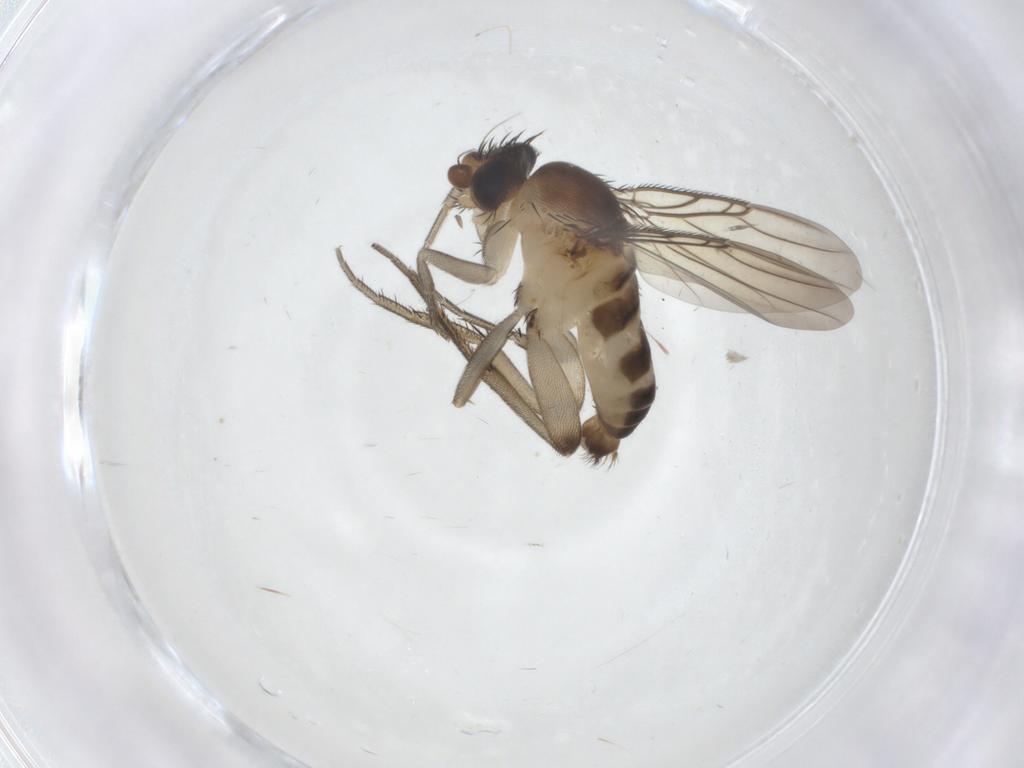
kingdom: Animalia
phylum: Arthropoda
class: Insecta
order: Diptera
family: Phoridae
